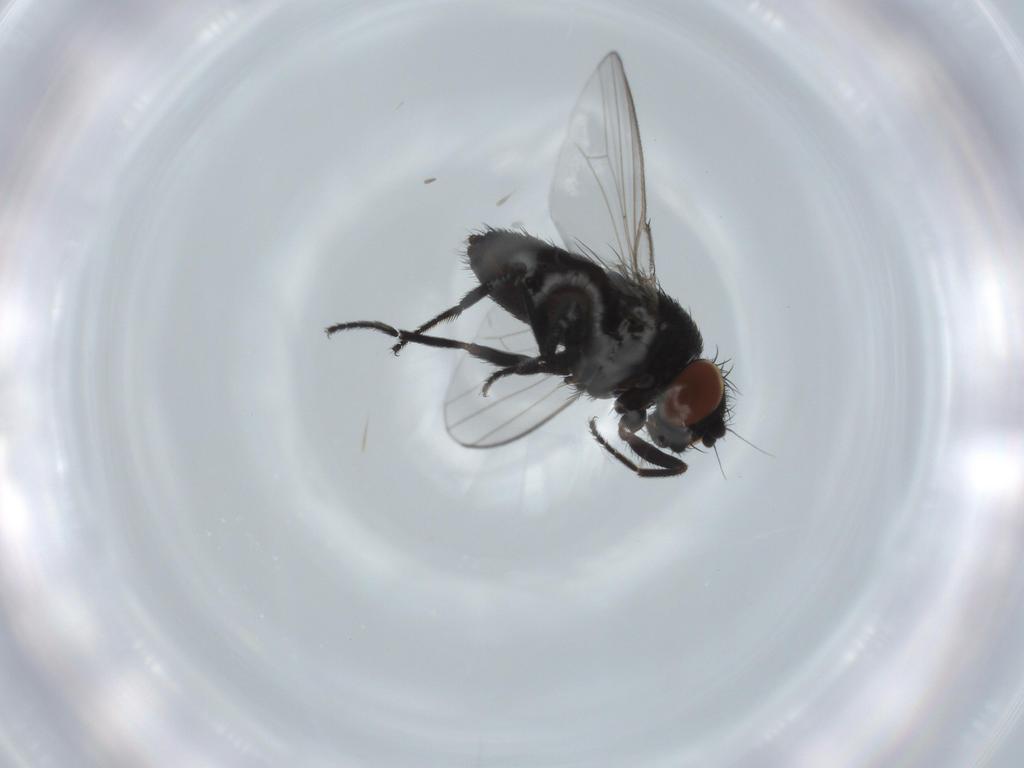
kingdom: Animalia
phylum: Arthropoda
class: Insecta
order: Diptera
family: Milichiidae
